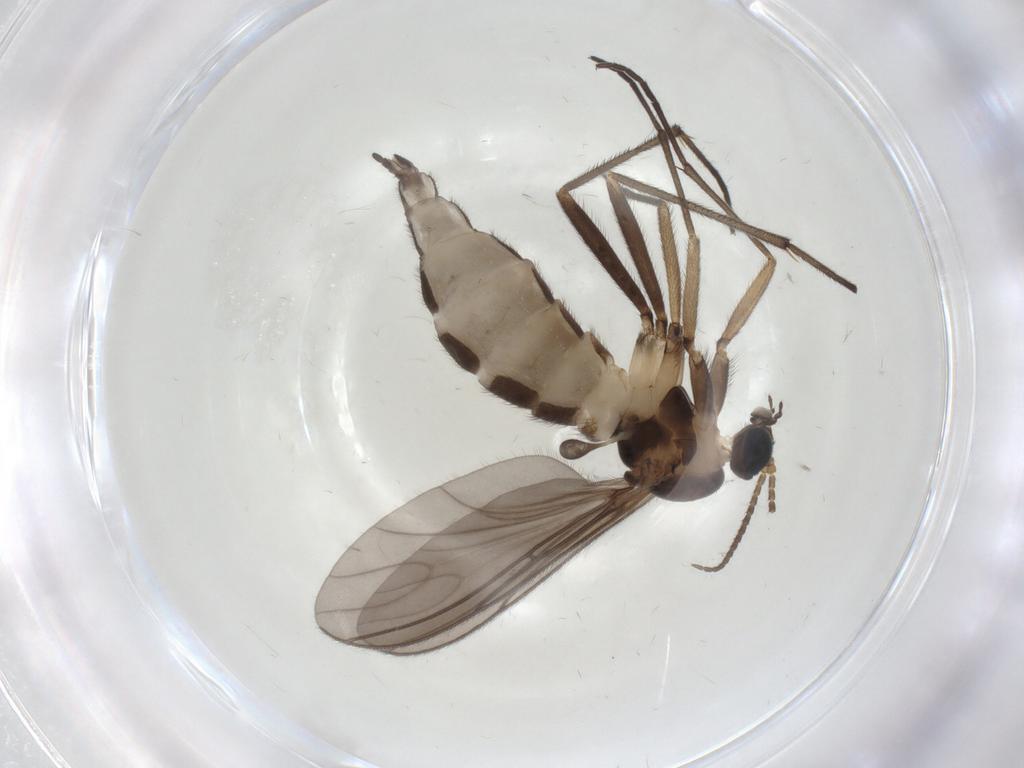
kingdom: Animalia
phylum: Arthropoda
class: Insecta
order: Diptera
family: Sciaridae
